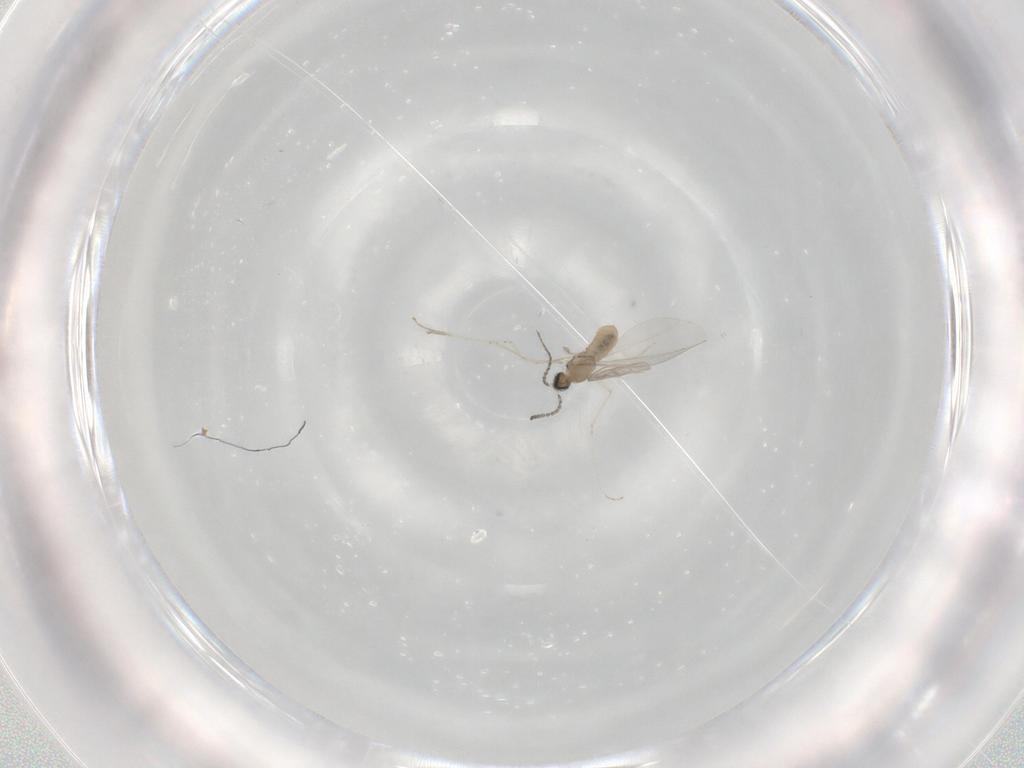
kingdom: Animalia
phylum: Arthropoda
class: Insecta
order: Diptera
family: Cecidomyiidae
